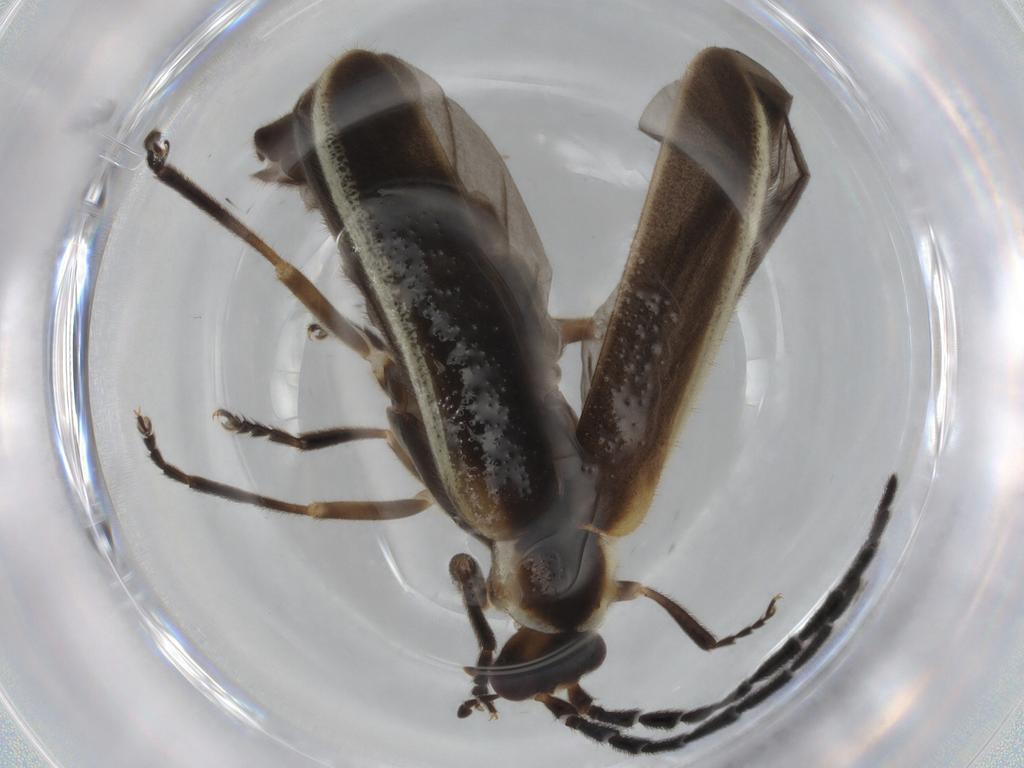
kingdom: Animalia
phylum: Arthropoda
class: Insecta
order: Coleoptera
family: Cantharidae
